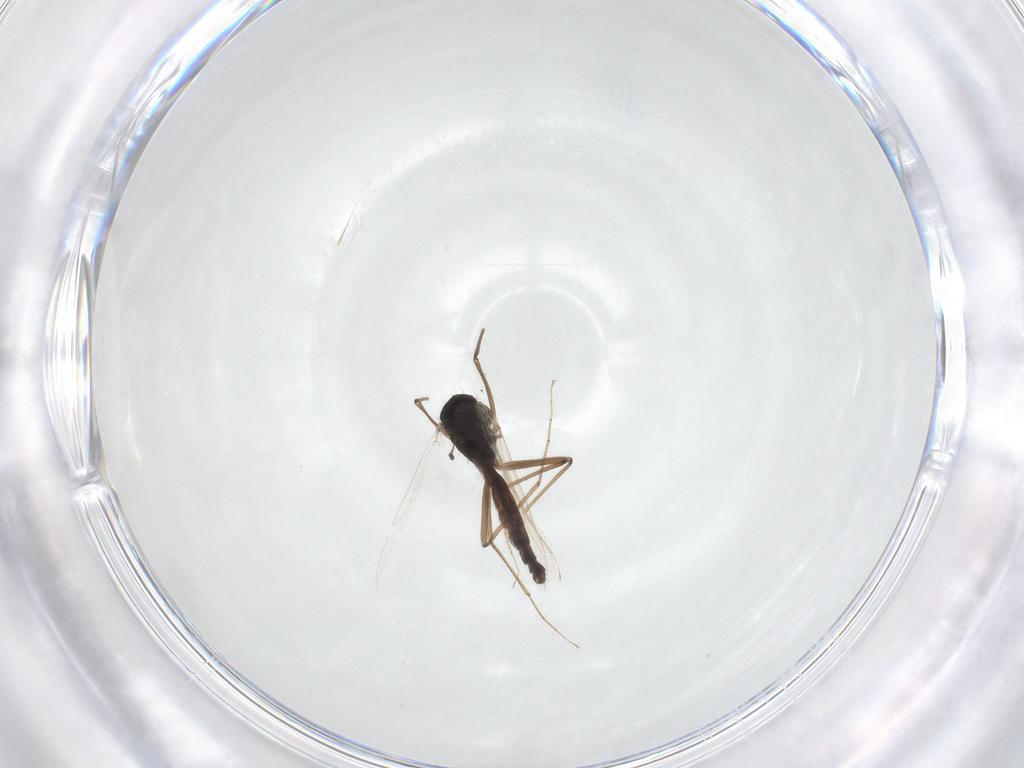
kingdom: Animalia
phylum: Arthropoda
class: Insecta
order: Diptera
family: Chironomidae
